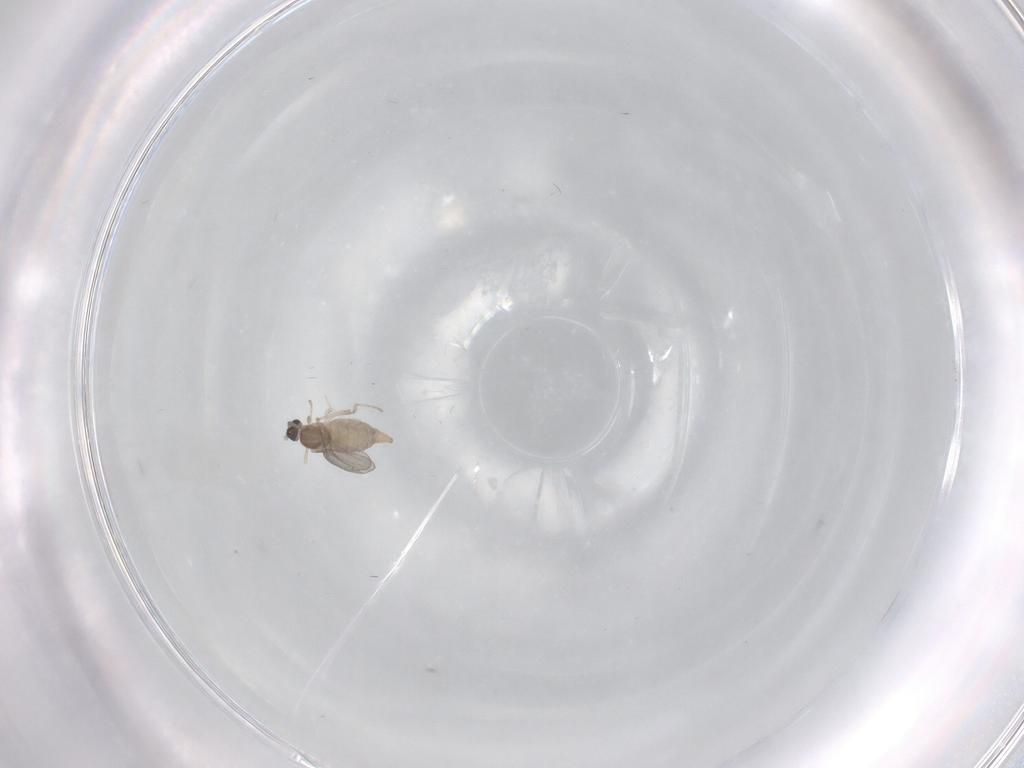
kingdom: Animalia
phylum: Arthropoda
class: Insecta
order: Diptera
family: Cecidomyiidae
